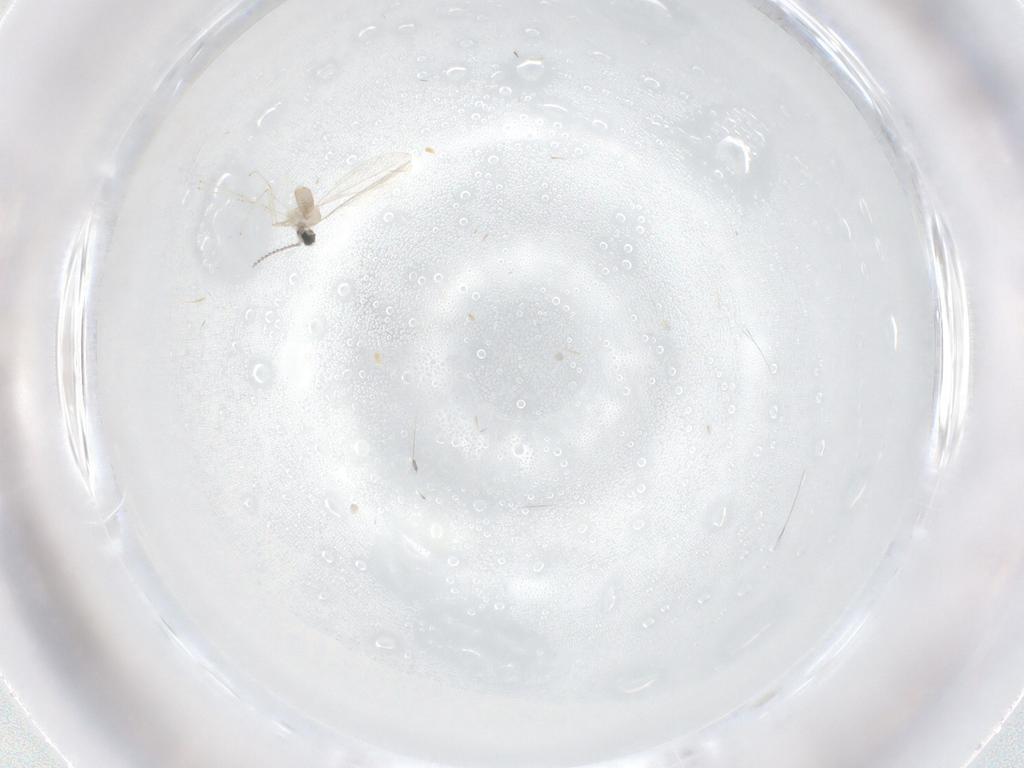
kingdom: Animalia
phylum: Arthropoda
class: Insecta
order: Diptera
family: Cecidomyiidae
